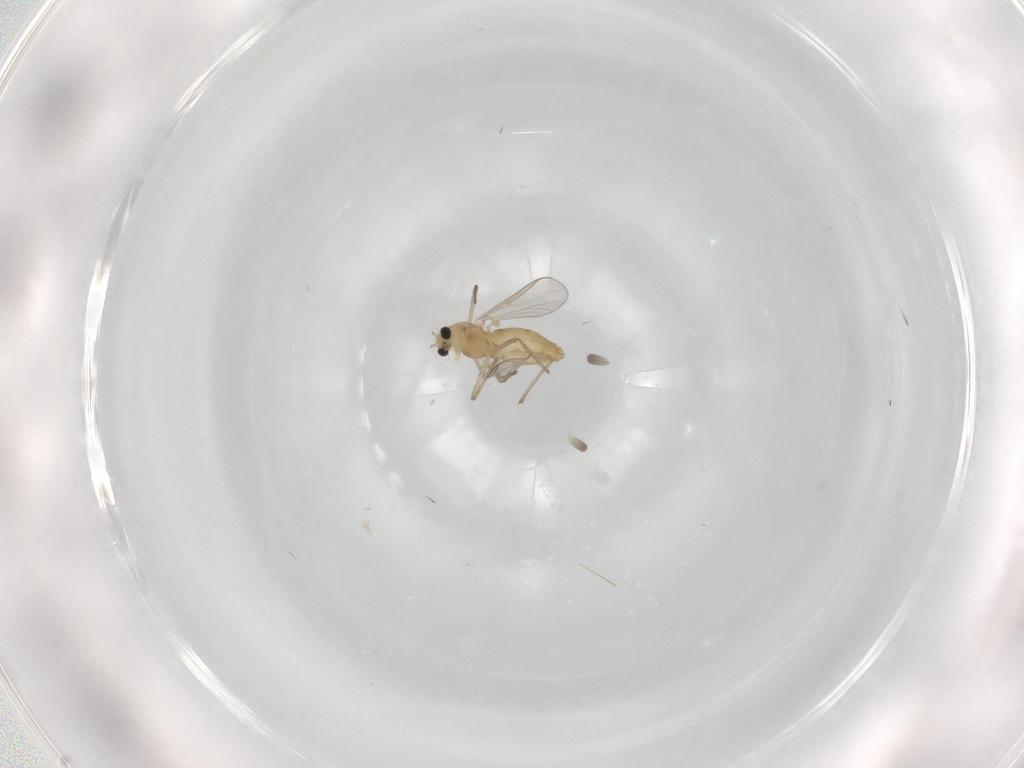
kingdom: Animalia
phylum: Arthropoda
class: Insecta
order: Diptera
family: Chironomidae
